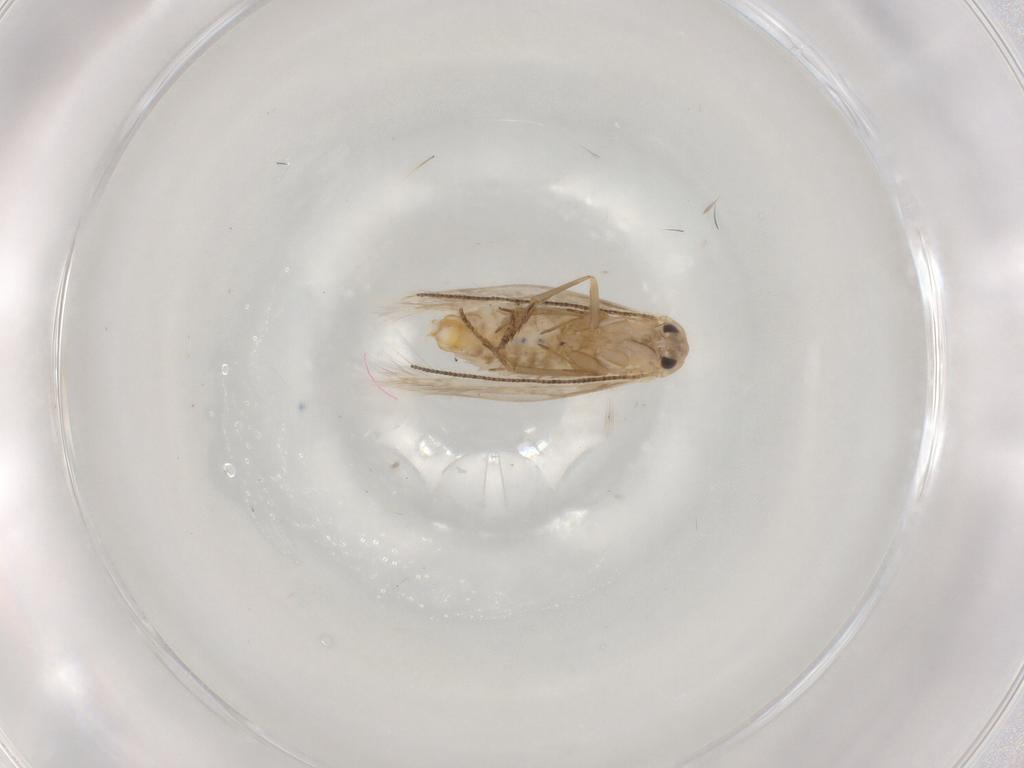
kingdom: Animalia
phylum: Arthropoda
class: Insecta
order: Lepidoptera
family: Bucculatricidae
